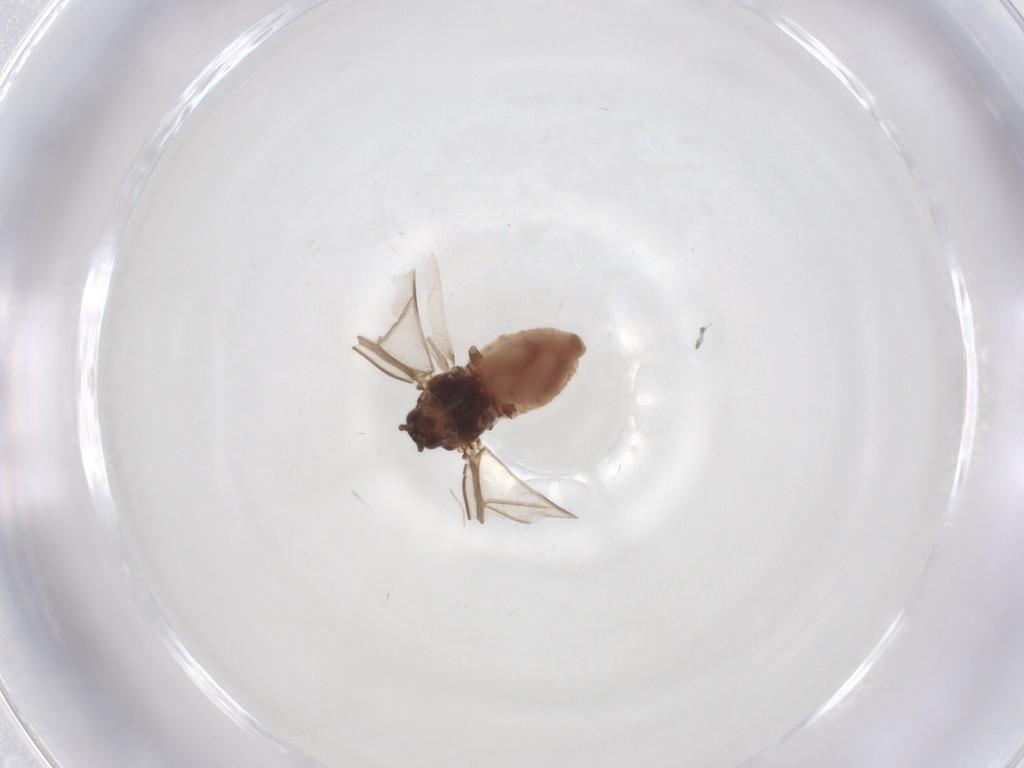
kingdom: Animalia
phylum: Arthropoda
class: Insecta
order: Hemiptera
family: Aphididae
